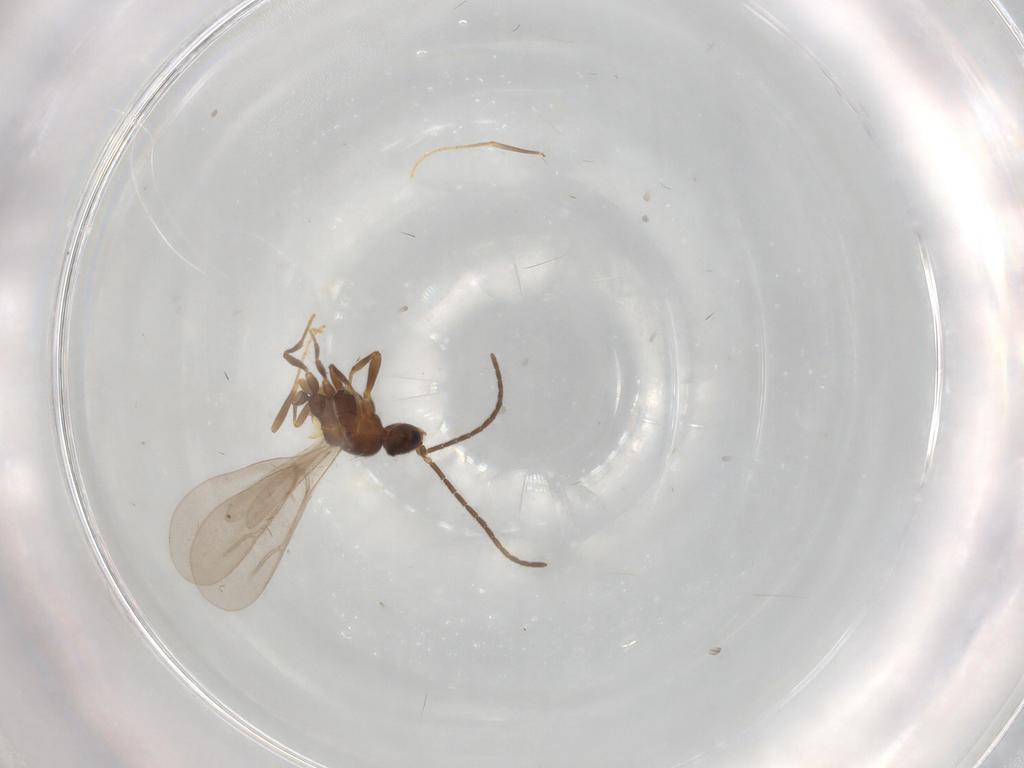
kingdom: Animalia
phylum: Arthropoda
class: Insecta
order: Hymenoptera
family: Formicidae
